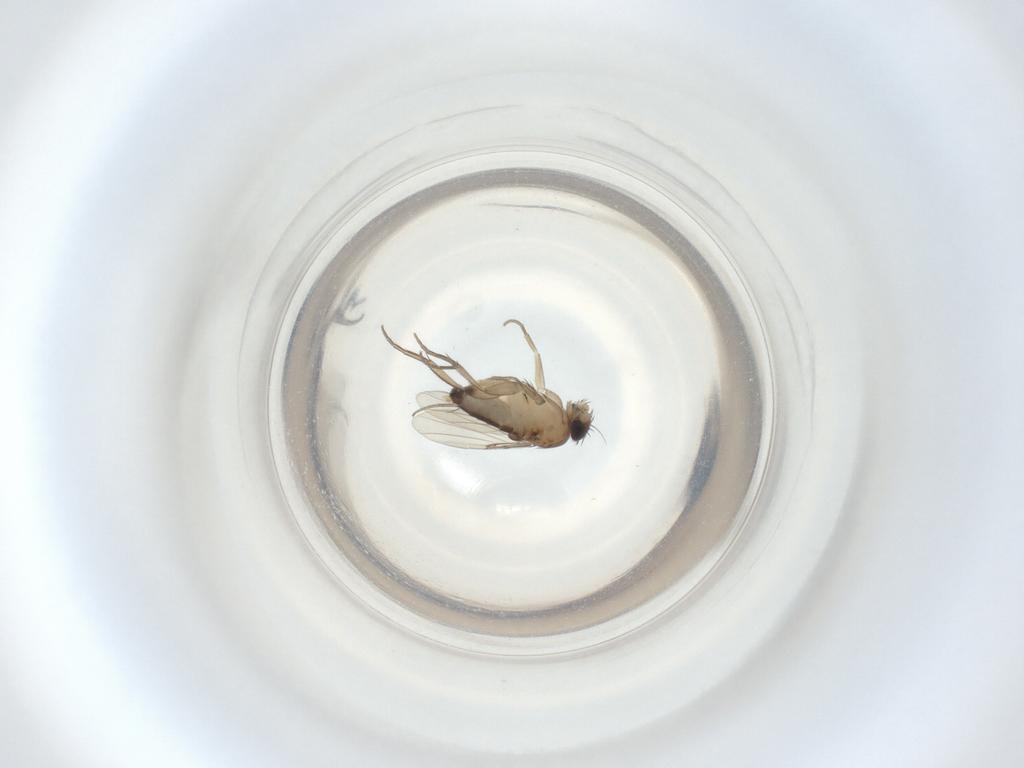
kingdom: Animalia
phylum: Arthropoda
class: Insecta
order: Diptera
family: Phoridae
